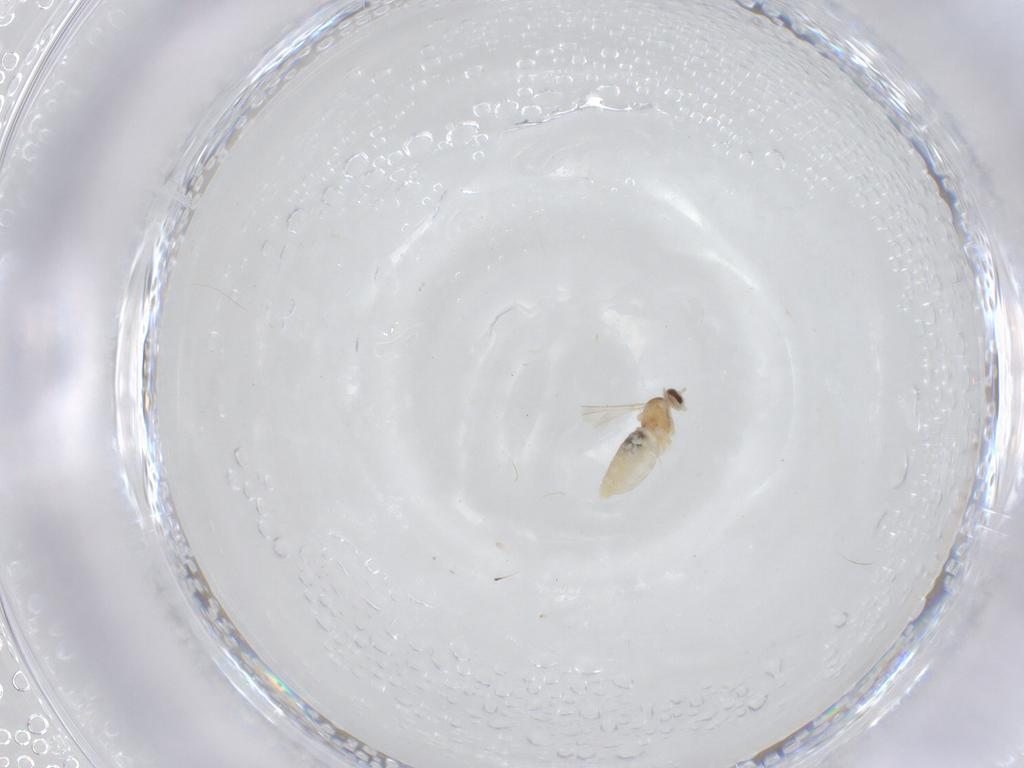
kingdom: Animalia
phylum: Arthropoda
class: Insecta
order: Diptera
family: Cecidomyiidae
